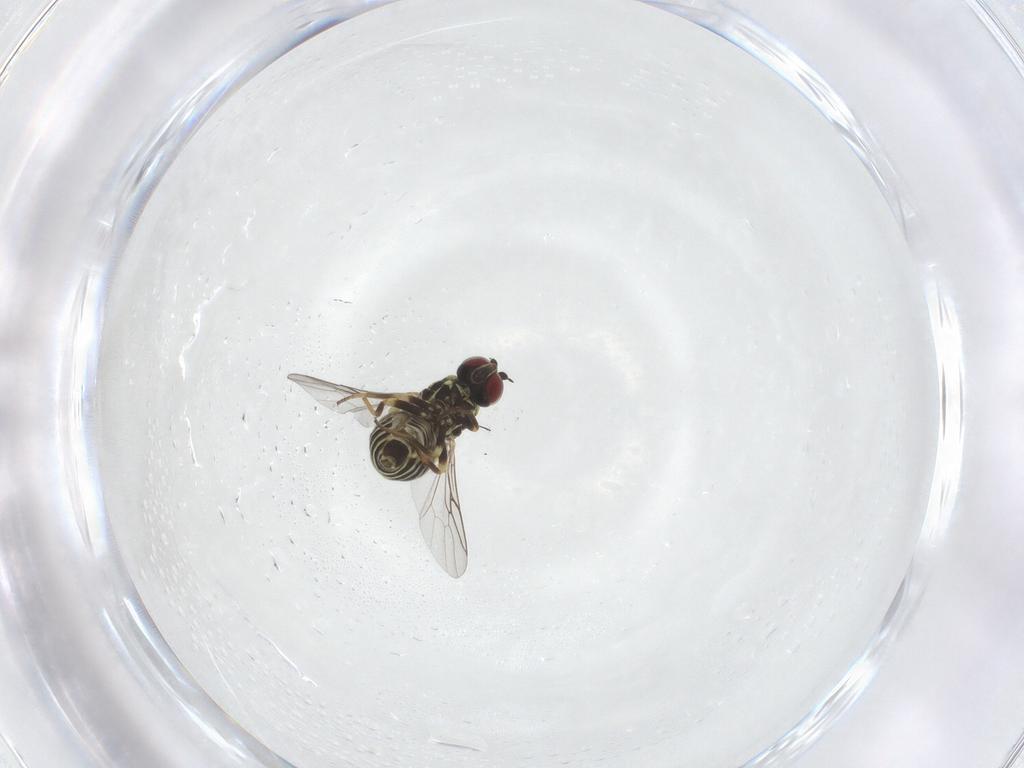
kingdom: Animalia
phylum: Arthropoda
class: Insecta
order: Diptera
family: Mythicomyiidae
